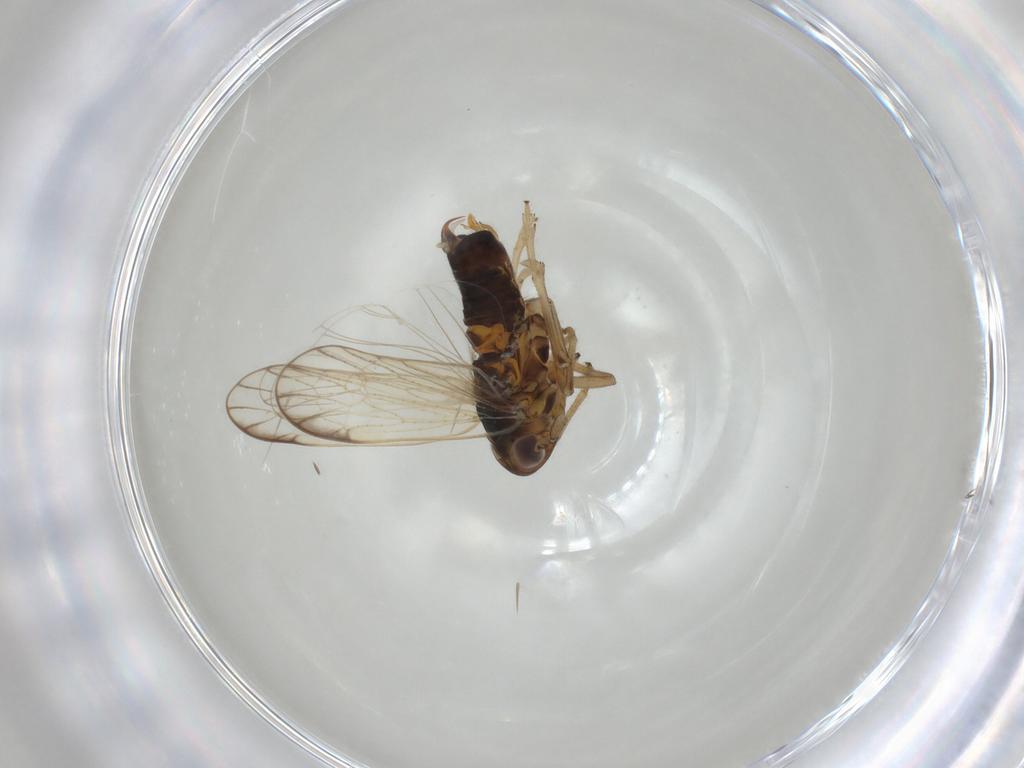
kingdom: Animalia
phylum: Arthropoda
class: Insecta
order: Hemiptera
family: Delphacidae
